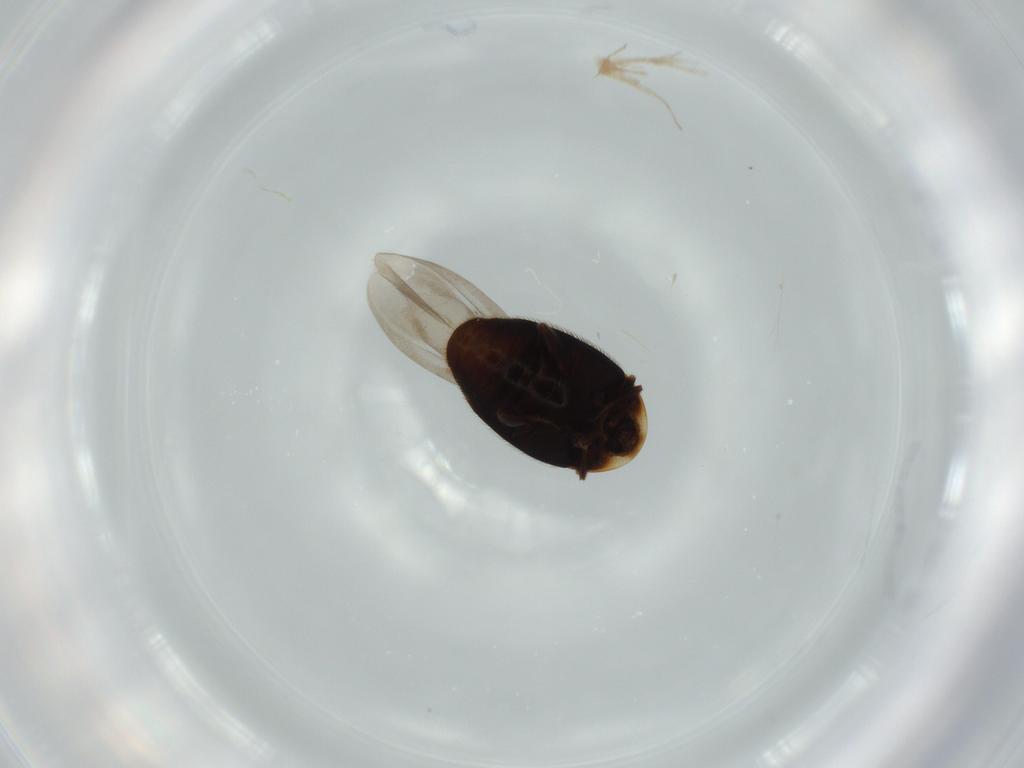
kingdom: Animalia
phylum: Arthropoda
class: Insecta
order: Coleoptera
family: Corylophidae
